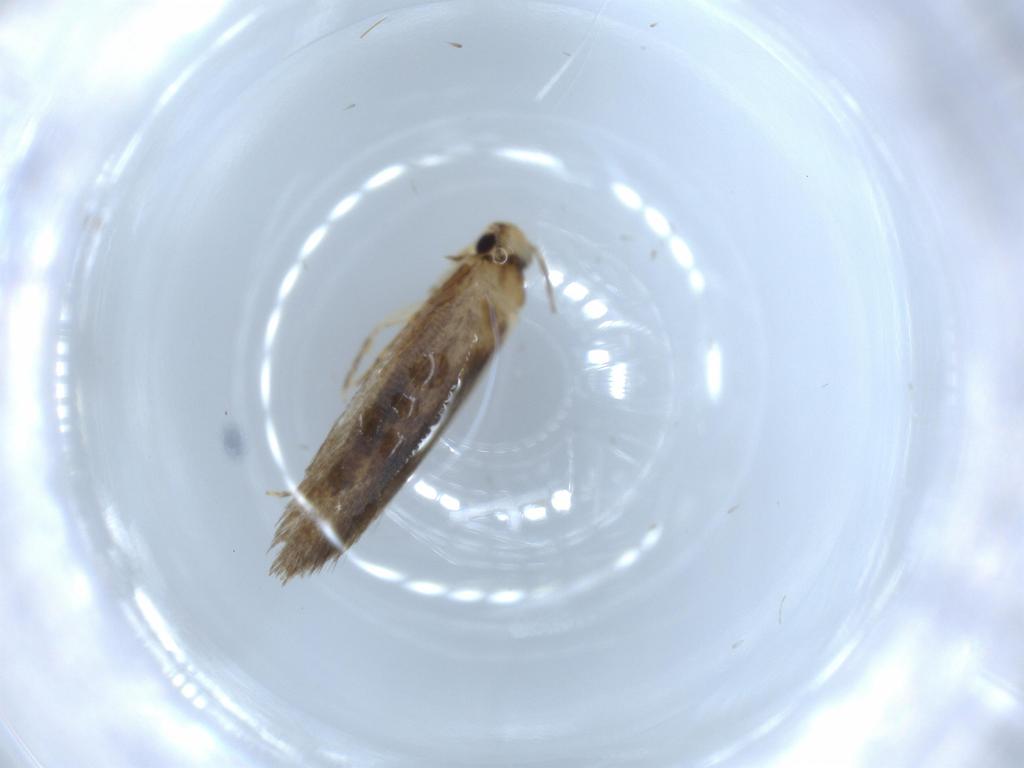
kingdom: Animalia
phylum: Arthropoda
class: Insecta
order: Lepidoptera
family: Tineidae
